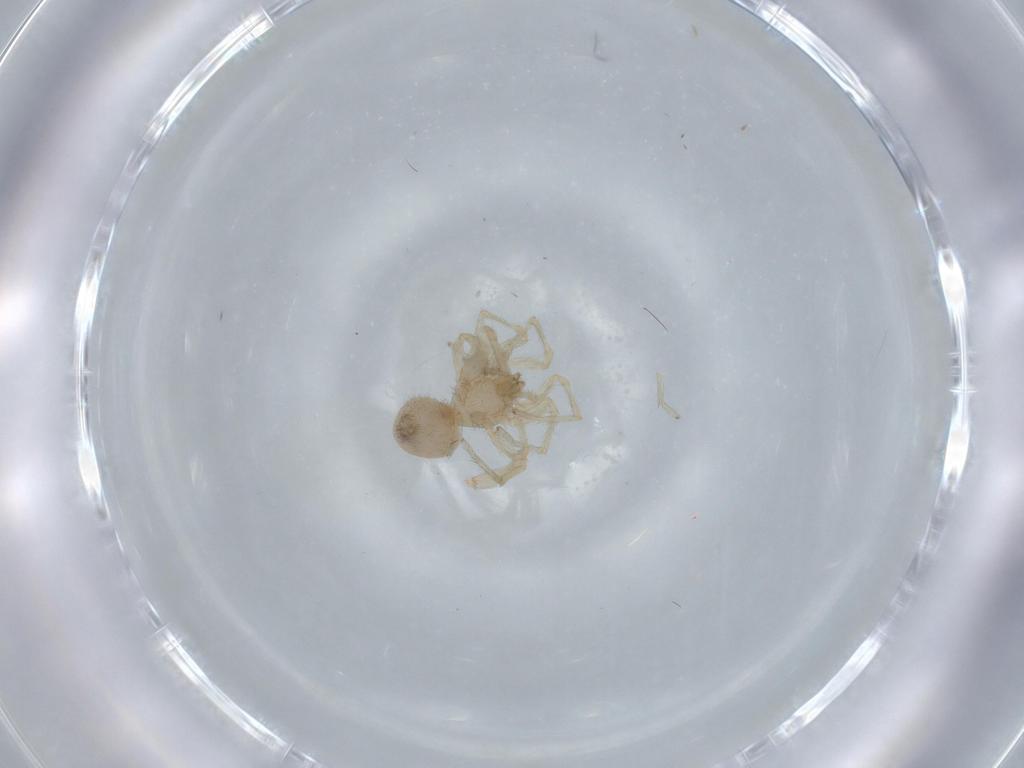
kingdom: Animalia
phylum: Arthropoda
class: Arachnida
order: Araneae
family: Oonopidae
